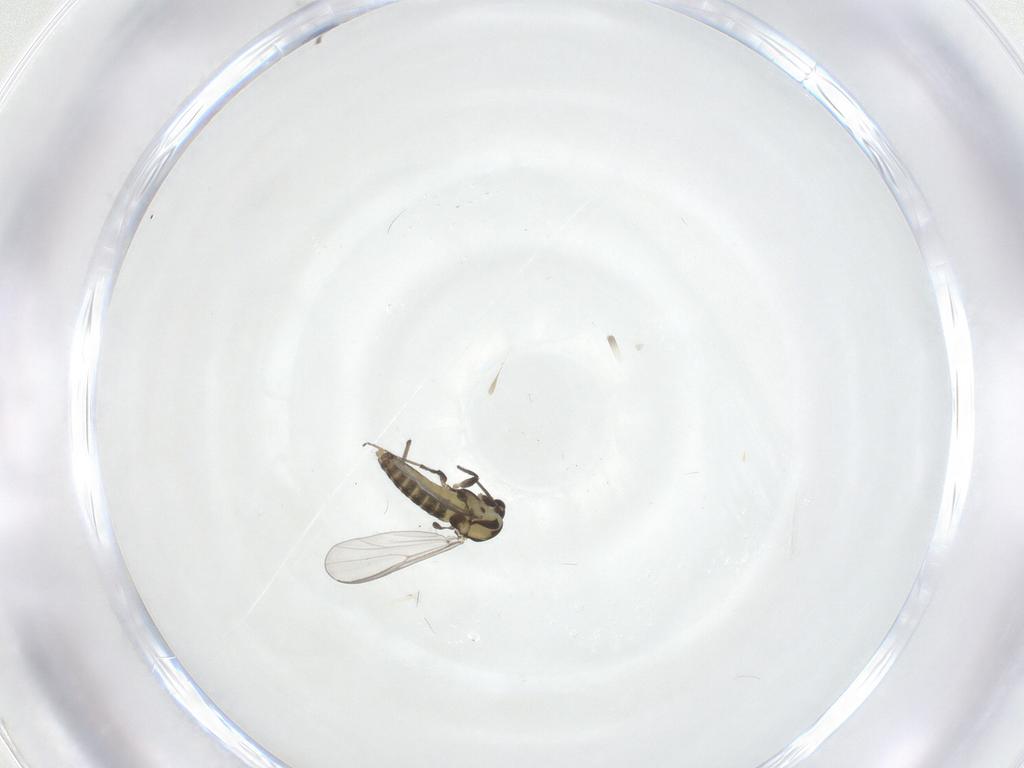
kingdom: Animalia
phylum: Arthropoda
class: Insecta
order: Diptera
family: Chironomidae
